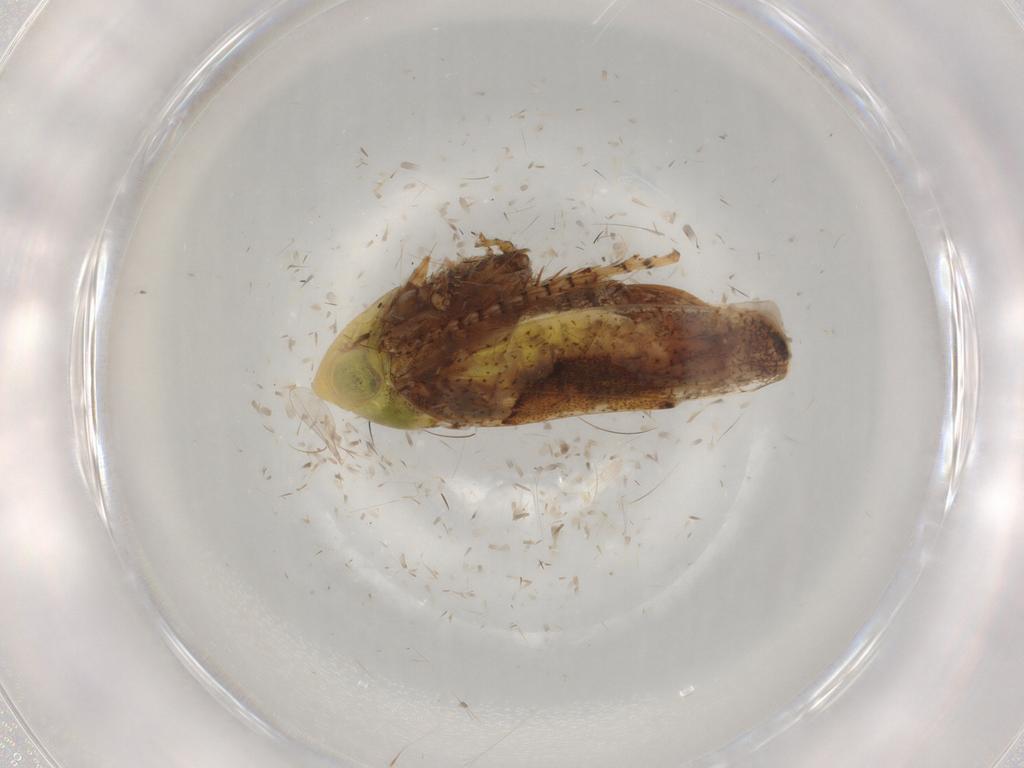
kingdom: Animalia
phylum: Arthropoda
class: Insecta
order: Hemiptera
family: Cicadellidae
